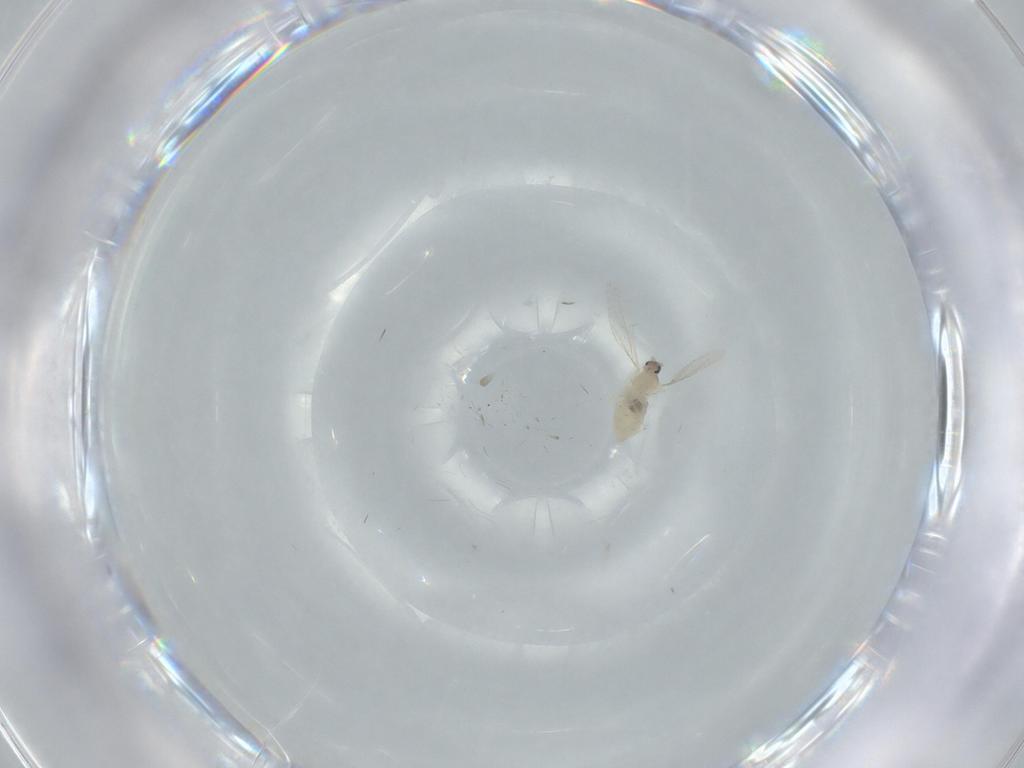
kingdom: Animalia
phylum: Arthropoda
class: Insecta
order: Diptera
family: Cecidomyiidae
